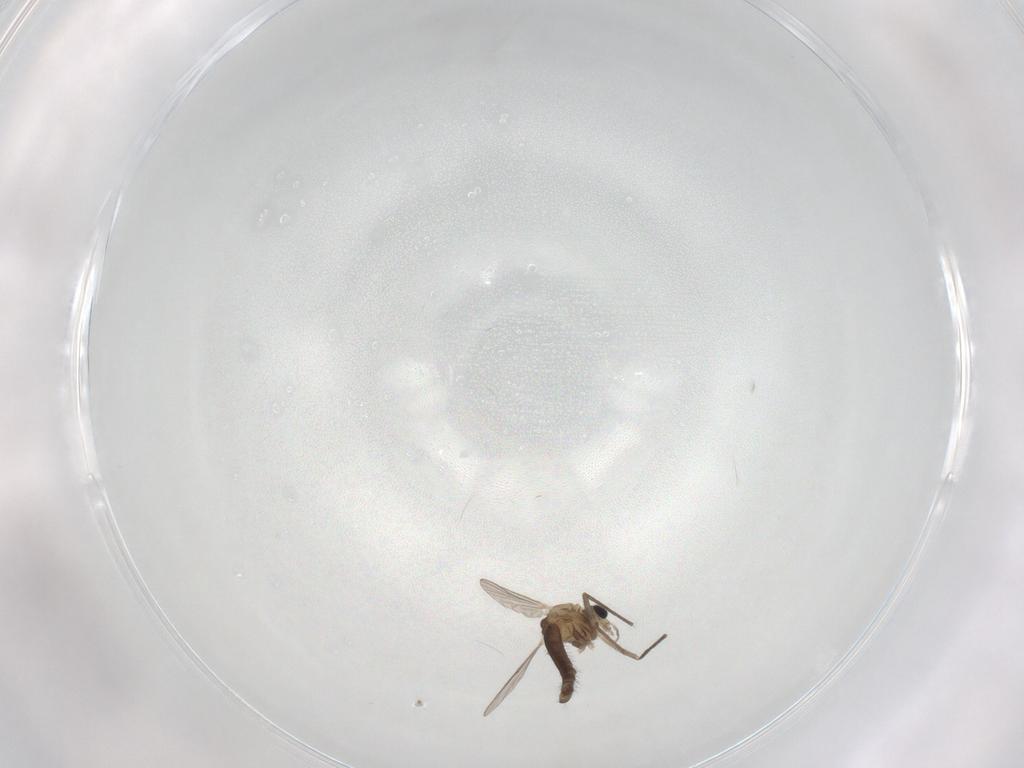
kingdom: Animalia
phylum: Arthropoda
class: Insecta
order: Diptera
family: Chironomidae
